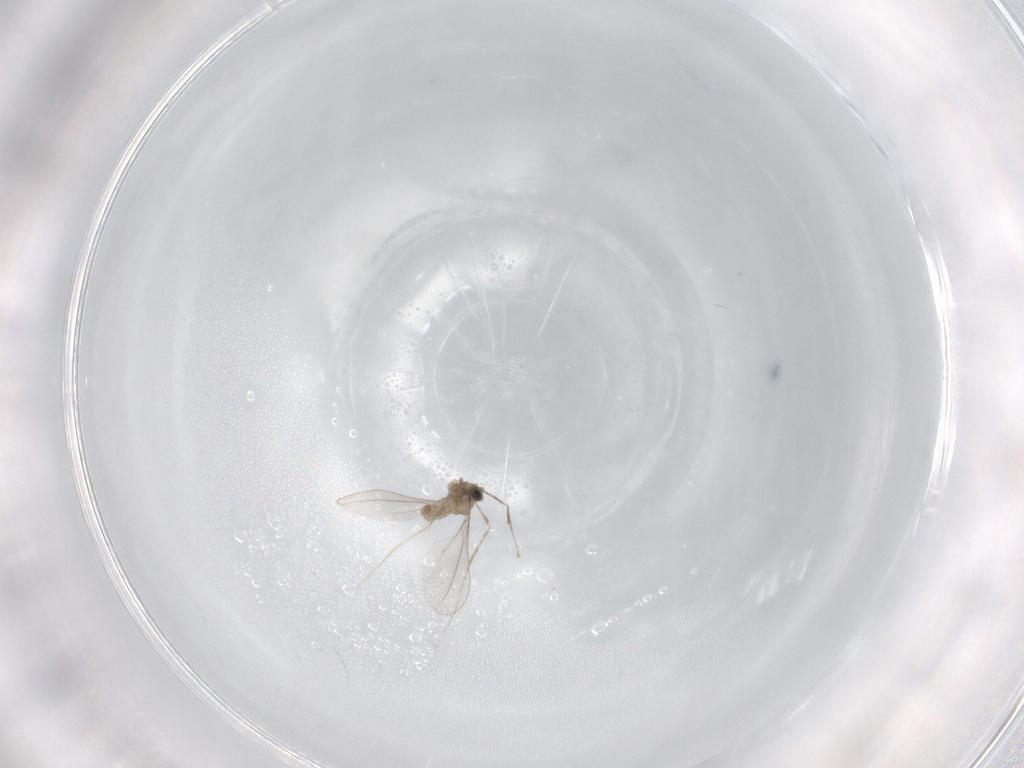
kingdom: Animalia
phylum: Arthropoda
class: Insecta
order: Diptera
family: Cecidomyiidae
